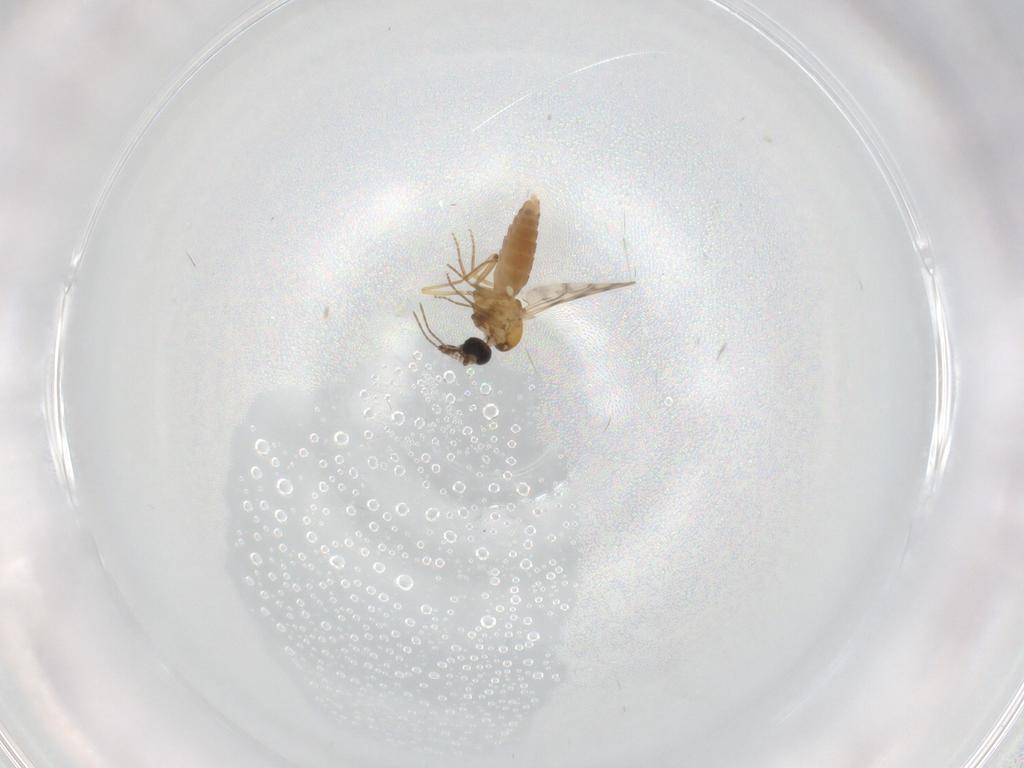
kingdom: Animalia
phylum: Arthropoda
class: Insecta
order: Diptera
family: Ceratopogonidae
